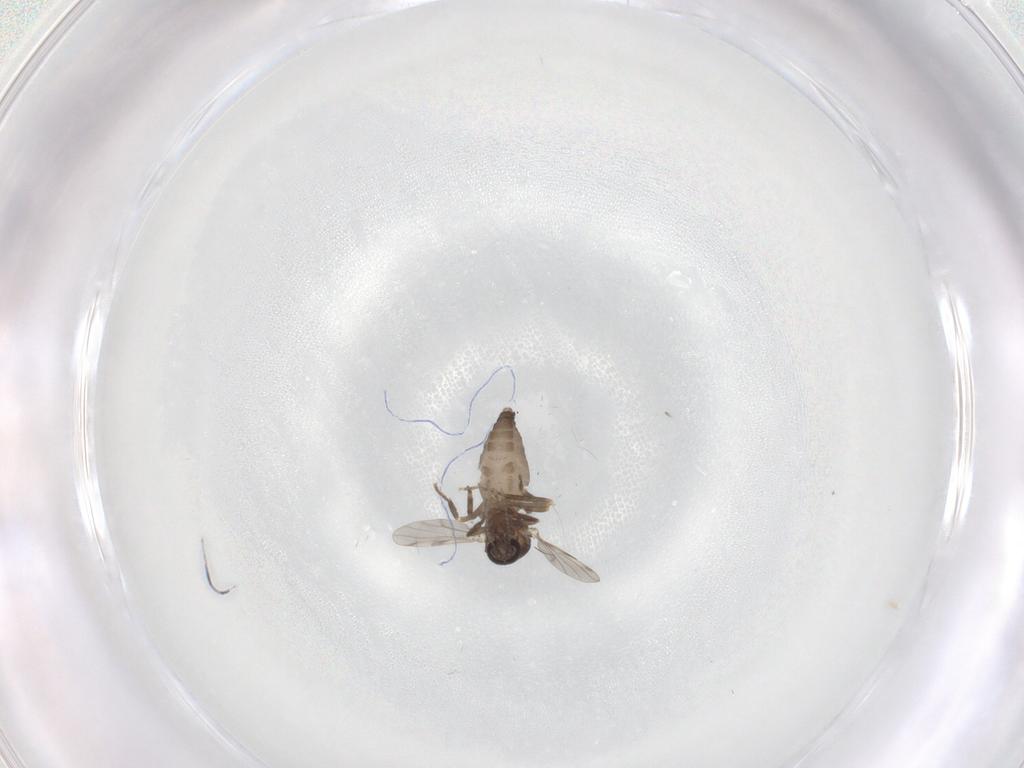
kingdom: Animalia
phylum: Arthropoda
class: Insecta
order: Diptera
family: Ceratopogonidae
